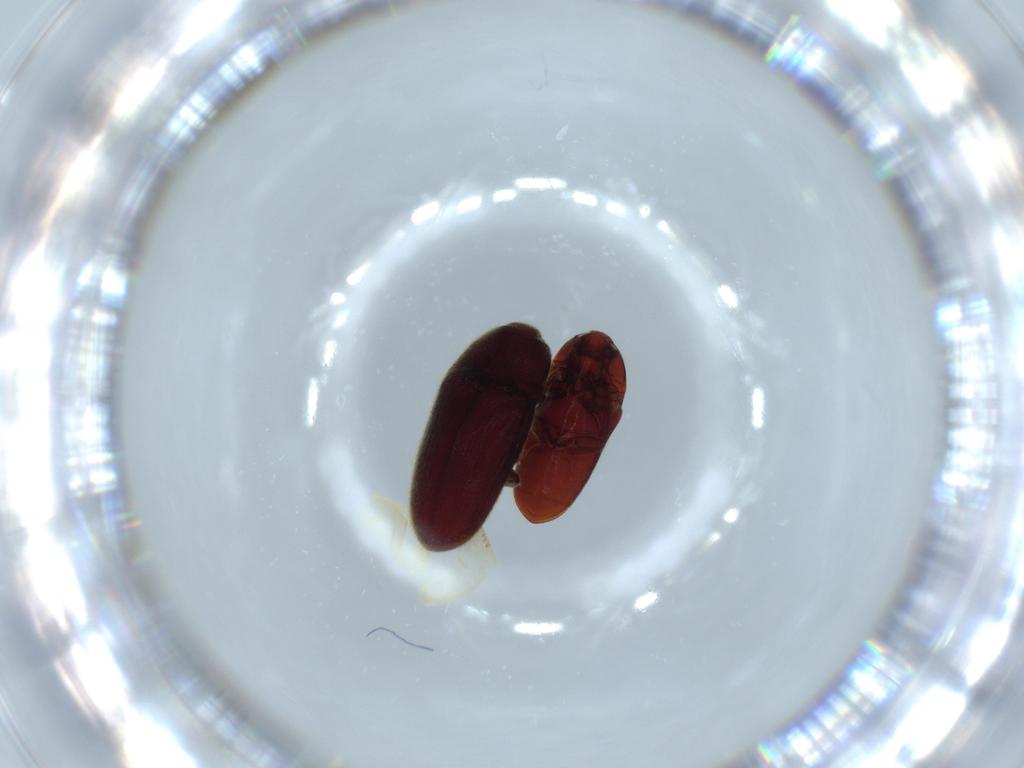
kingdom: Animalia
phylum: Arthropoda
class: Insecta
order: Coleoptera
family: Throscidae
